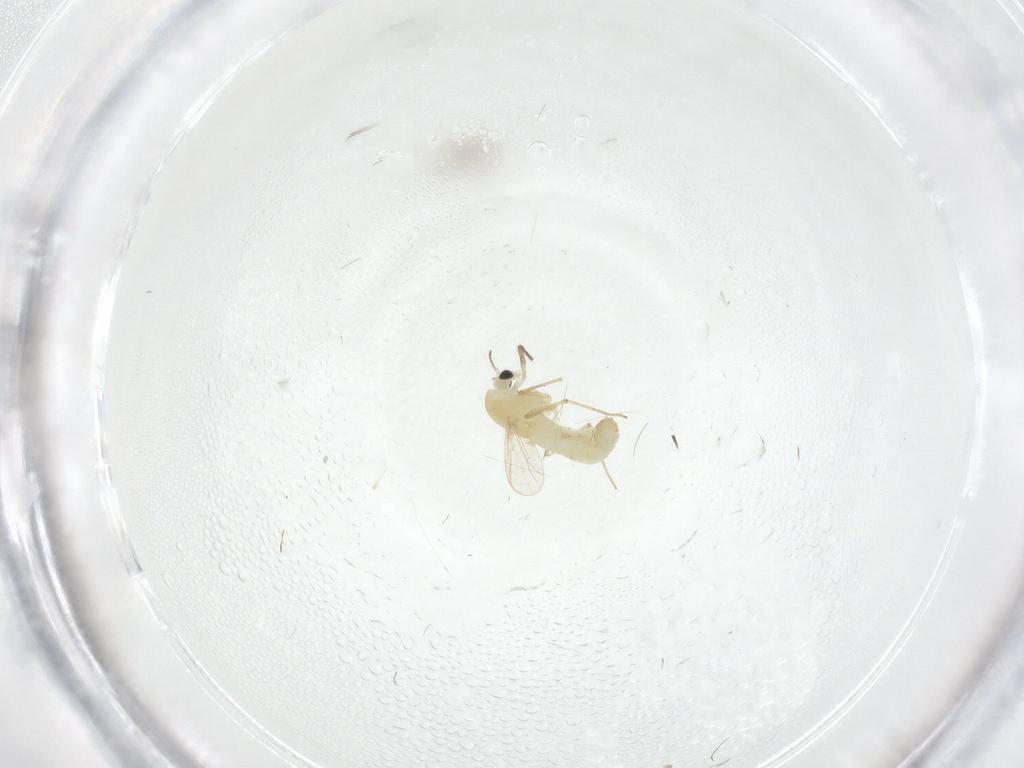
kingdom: Animalia
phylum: Arthropoda
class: Insecta
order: Diptera
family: Chironomidae
